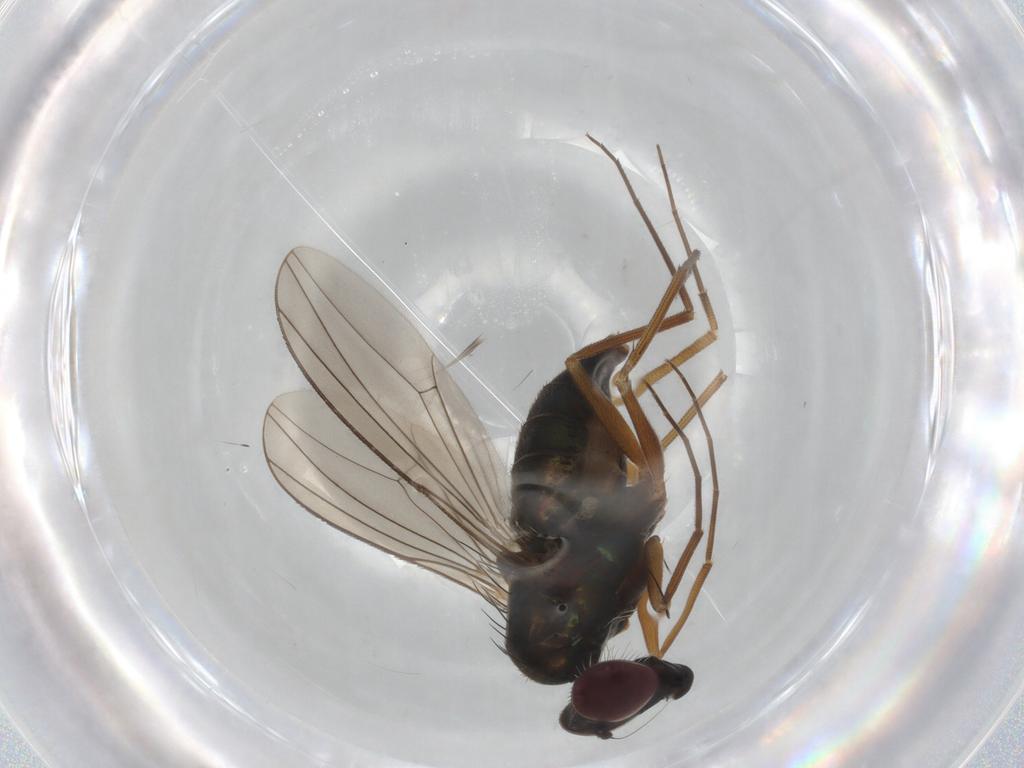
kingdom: Animalia
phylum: Arthropoda
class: Insecta
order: Diptera
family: Dolichopodidae
